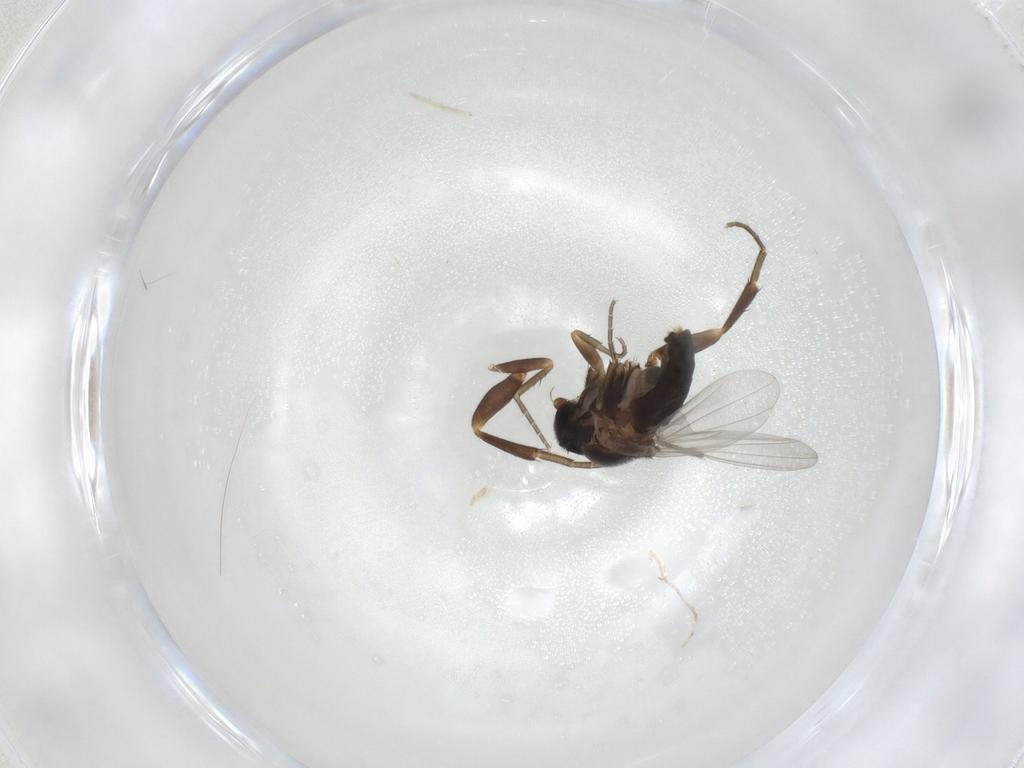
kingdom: Animalia
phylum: Arthropoda
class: Insecta
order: Diptera
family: Phoridae
